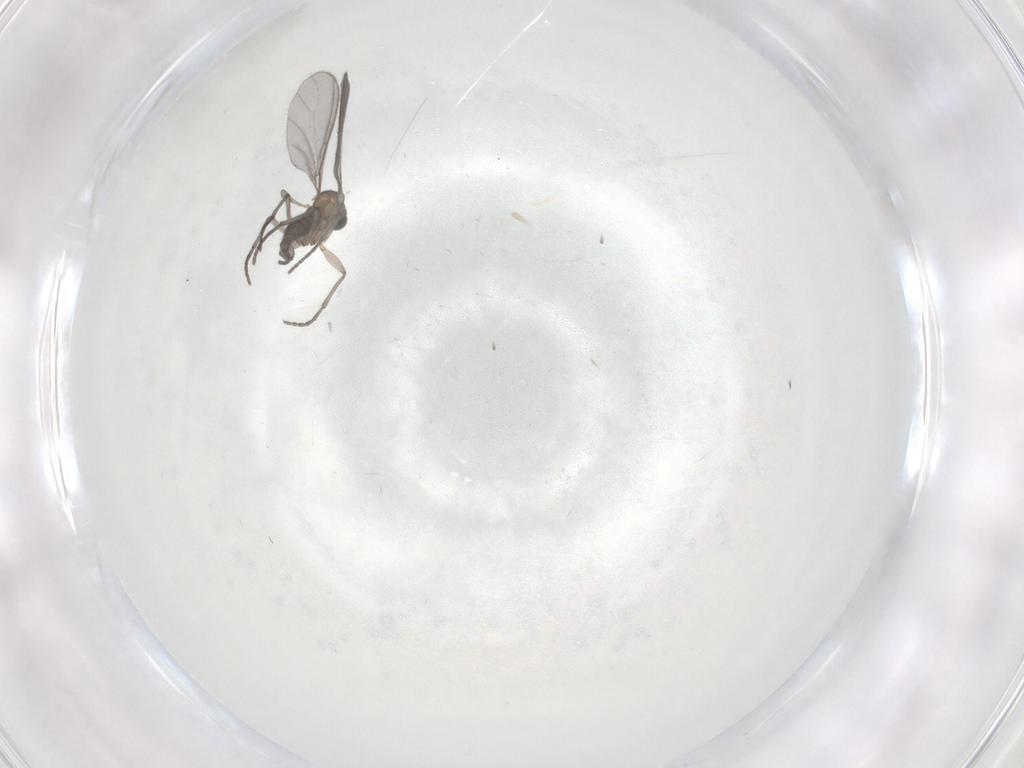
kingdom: Animalia
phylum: Arthropoda
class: Insecta
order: Diptera
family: Sciaridae
